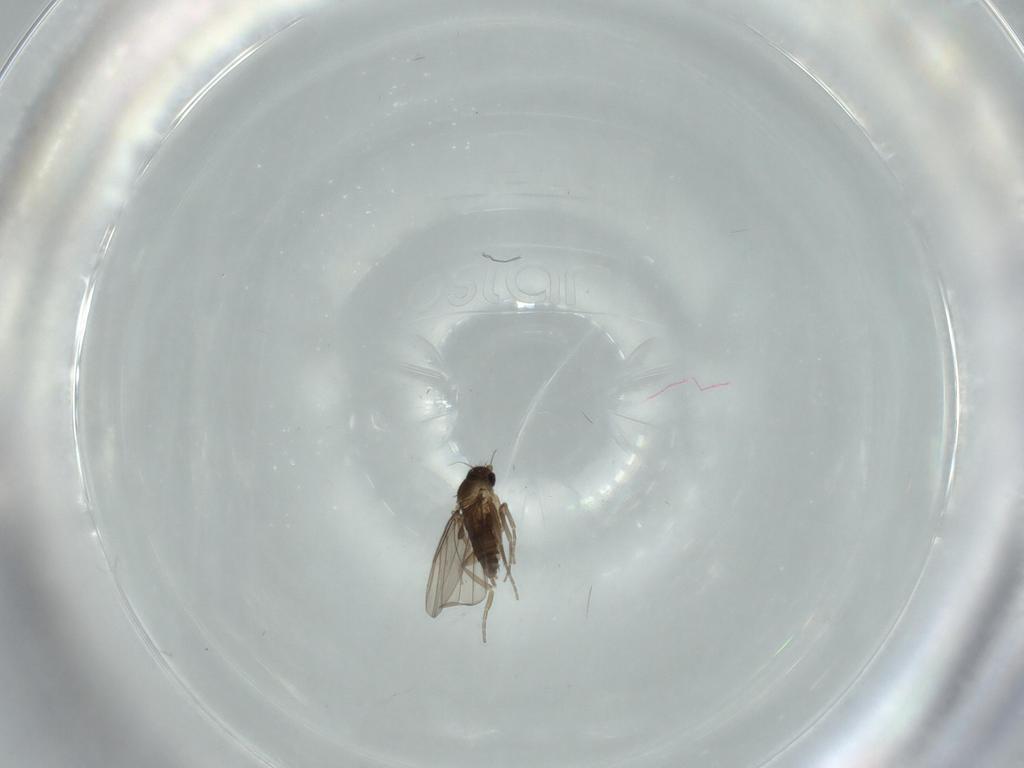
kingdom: Animalia
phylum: Arthropoda
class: Insecta
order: Diptera
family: Phoridae
